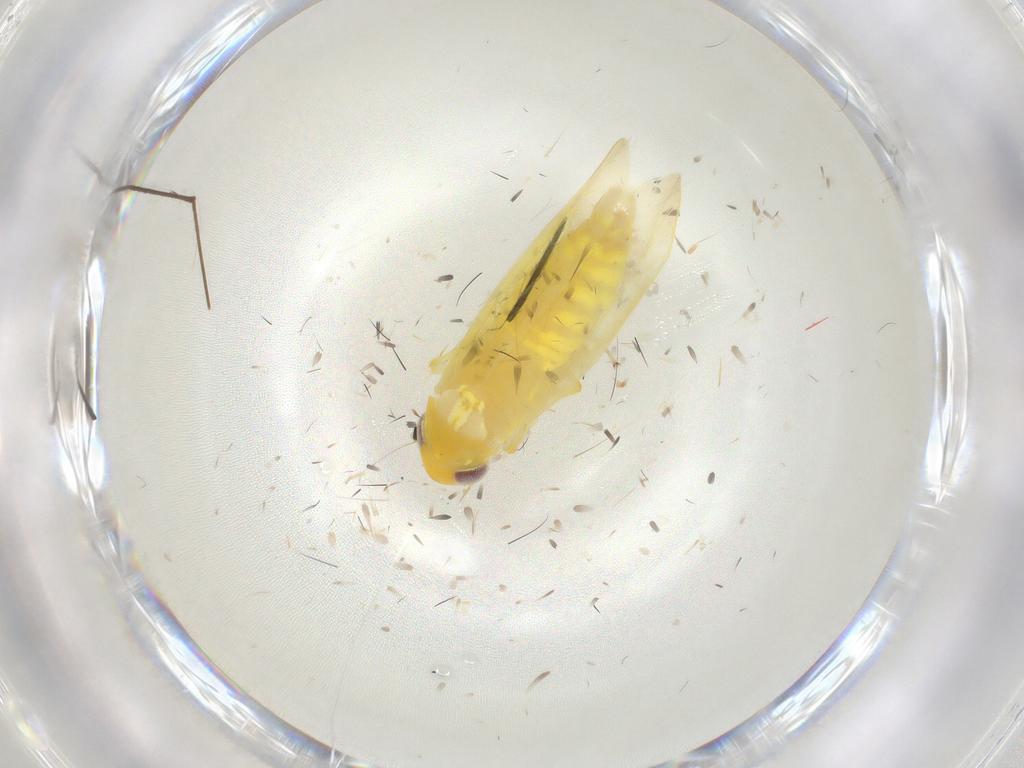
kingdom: Animalia
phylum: Arthropoda
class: Insecta
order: Hemiptera
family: Cicadellidae
